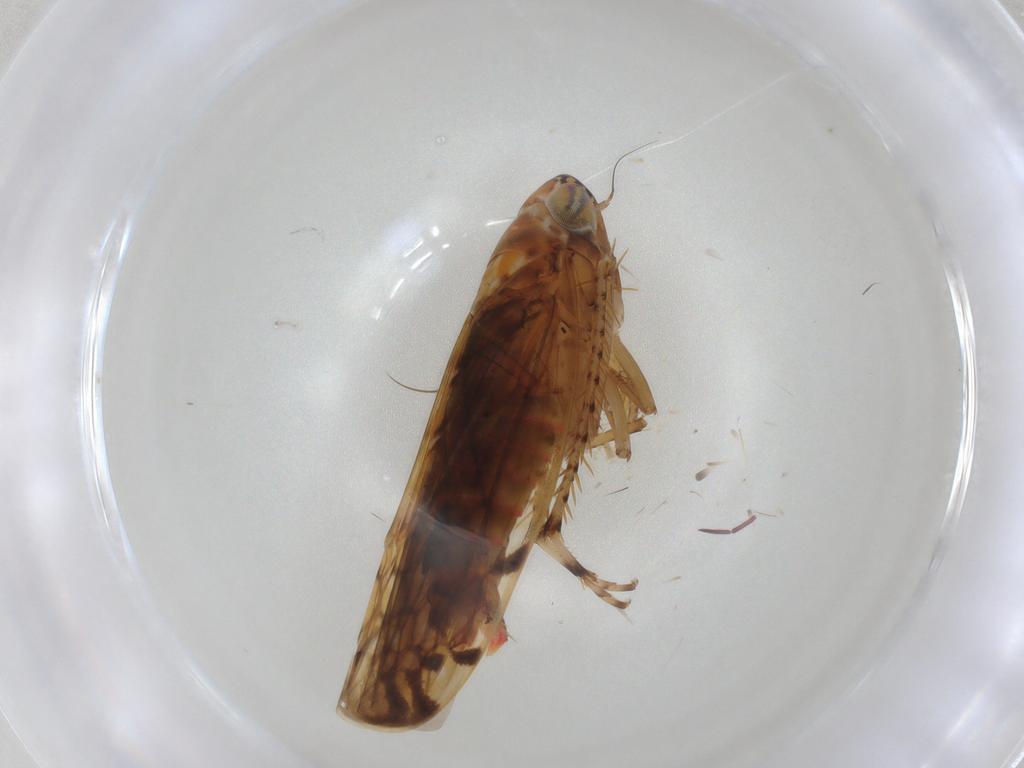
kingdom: Animalia
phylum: Arthropoda
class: Insecta
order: Hemiptera
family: Cicadellidae
